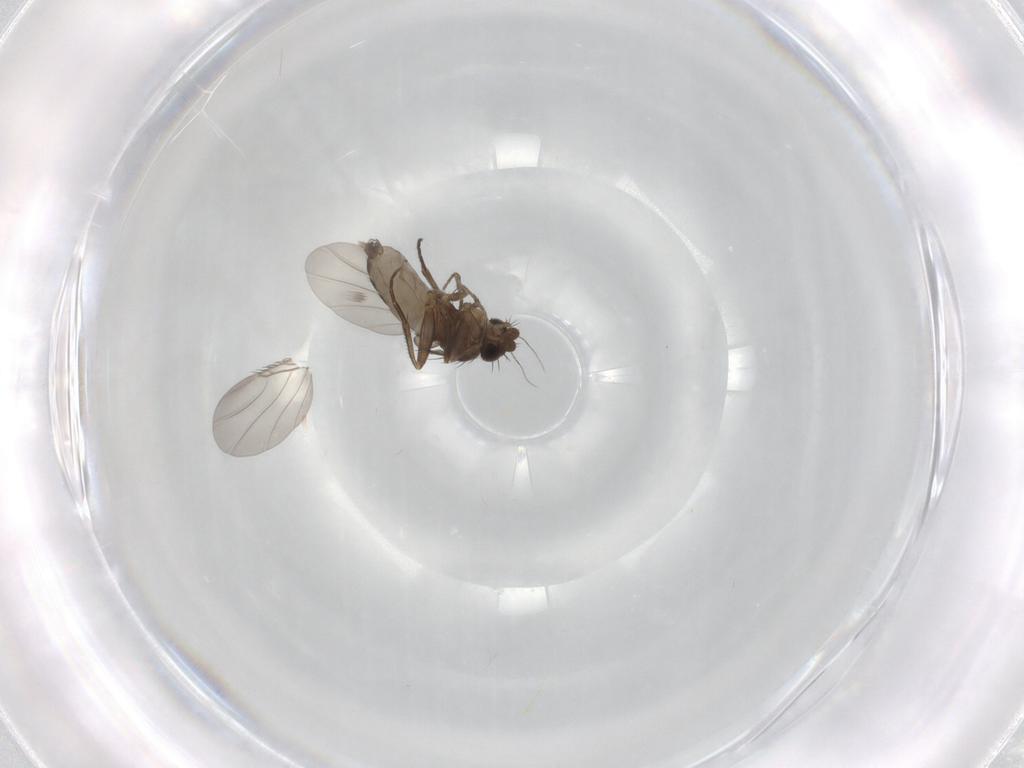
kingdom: Animalia
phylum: Arthropoda
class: Insecta
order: Diptera
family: Phoridae
